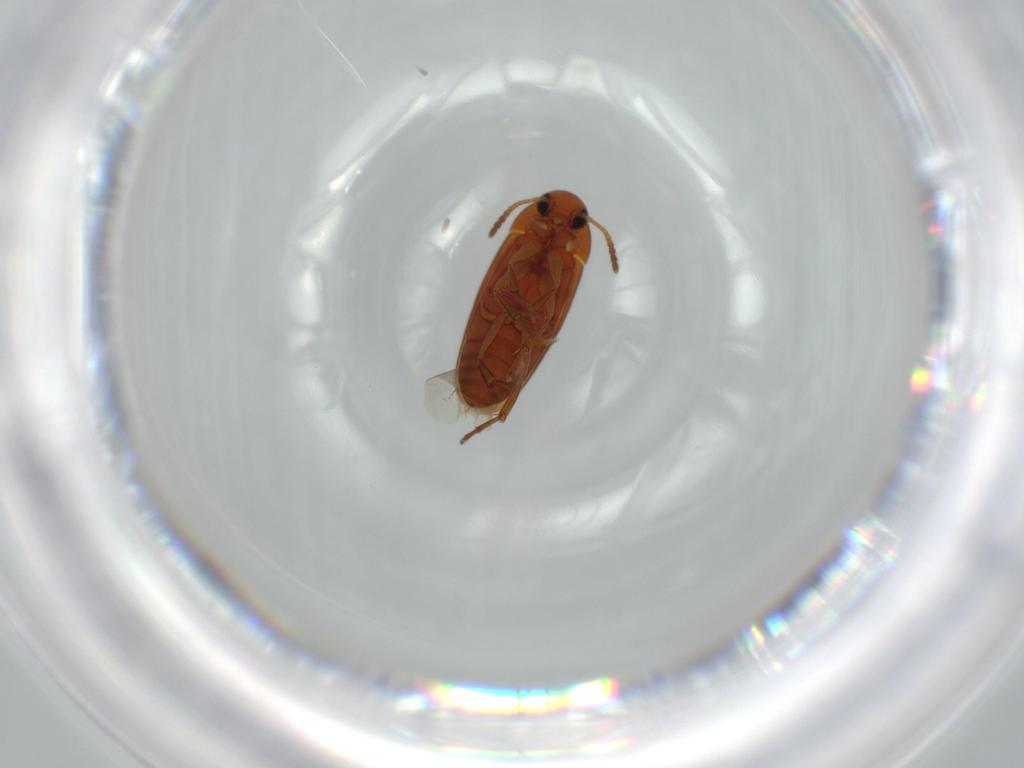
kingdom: Animalia
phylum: Arthropoda
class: Insecta
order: Coleoptera
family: Scraptiidae
